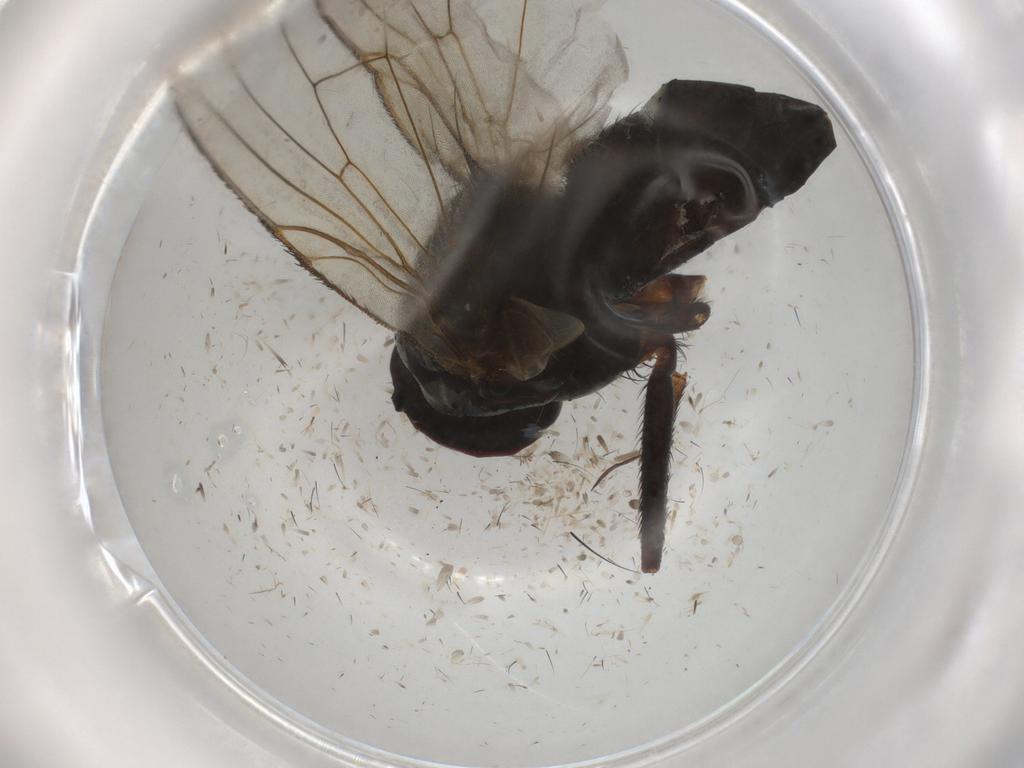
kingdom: Animalia
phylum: Arthropoda
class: Insecta
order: Diptera
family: Muscidae
